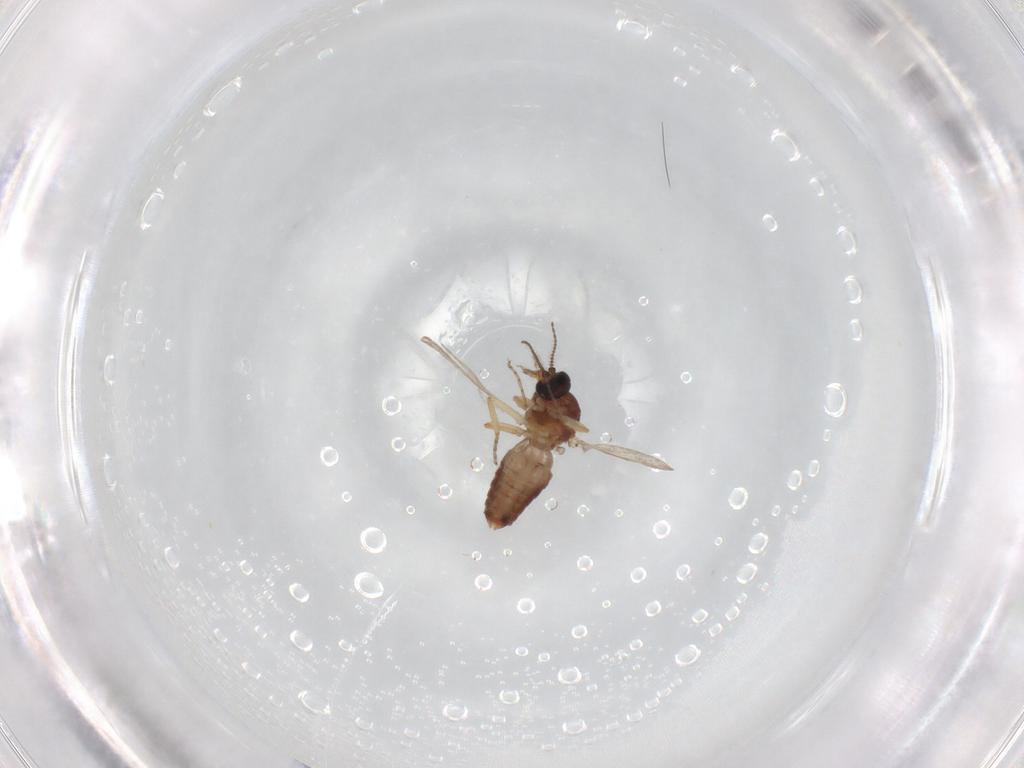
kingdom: Animalia
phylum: Arthropoda
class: Insecta
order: Diptera
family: Ceratopogonidae
